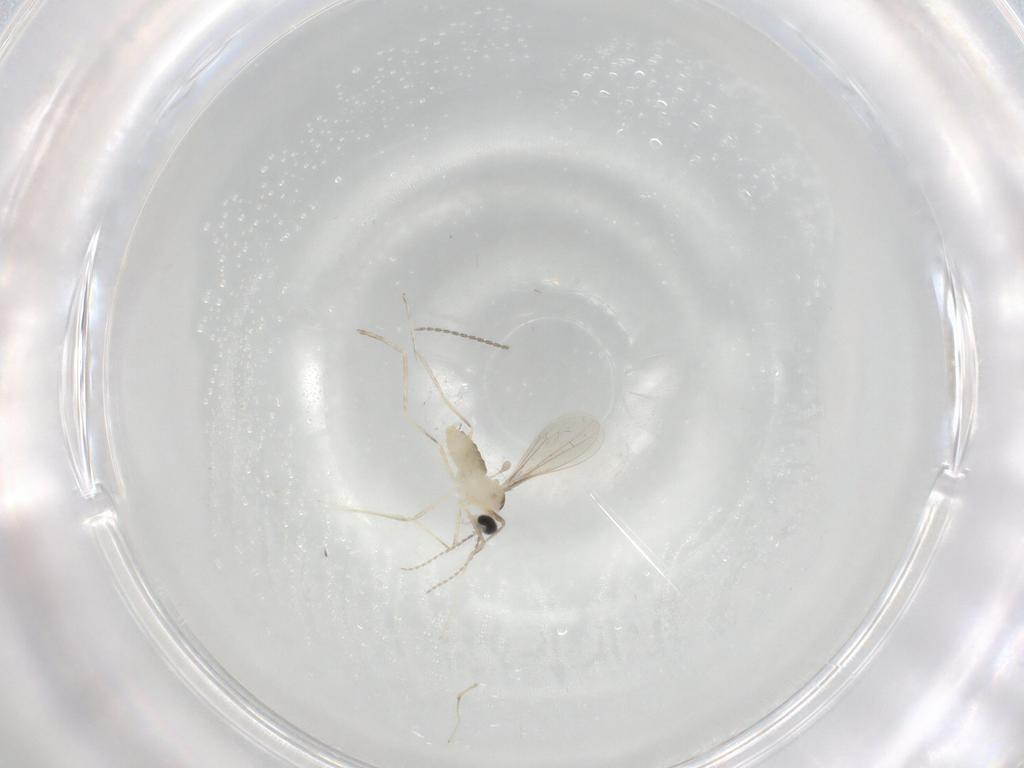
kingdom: Animalia
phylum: Arthropoda
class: Insecta
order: Diptera
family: Cecidomyiidae
